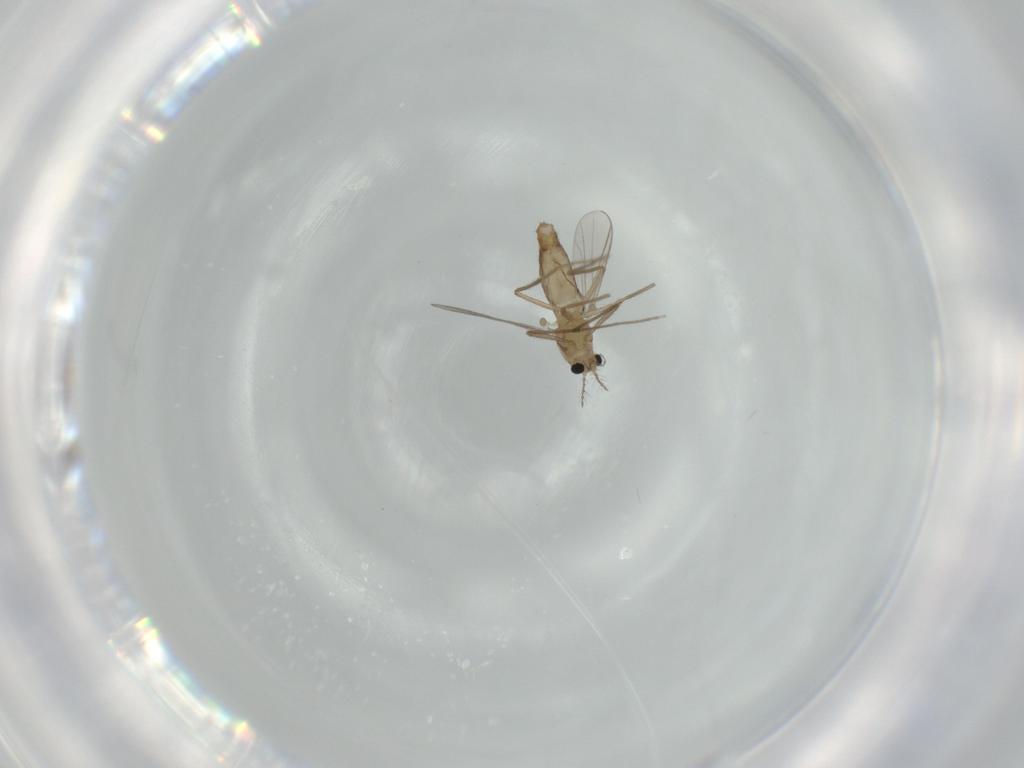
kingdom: Animalia
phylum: Arthropoda
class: Insecta
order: Diptera
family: Chironomidae
